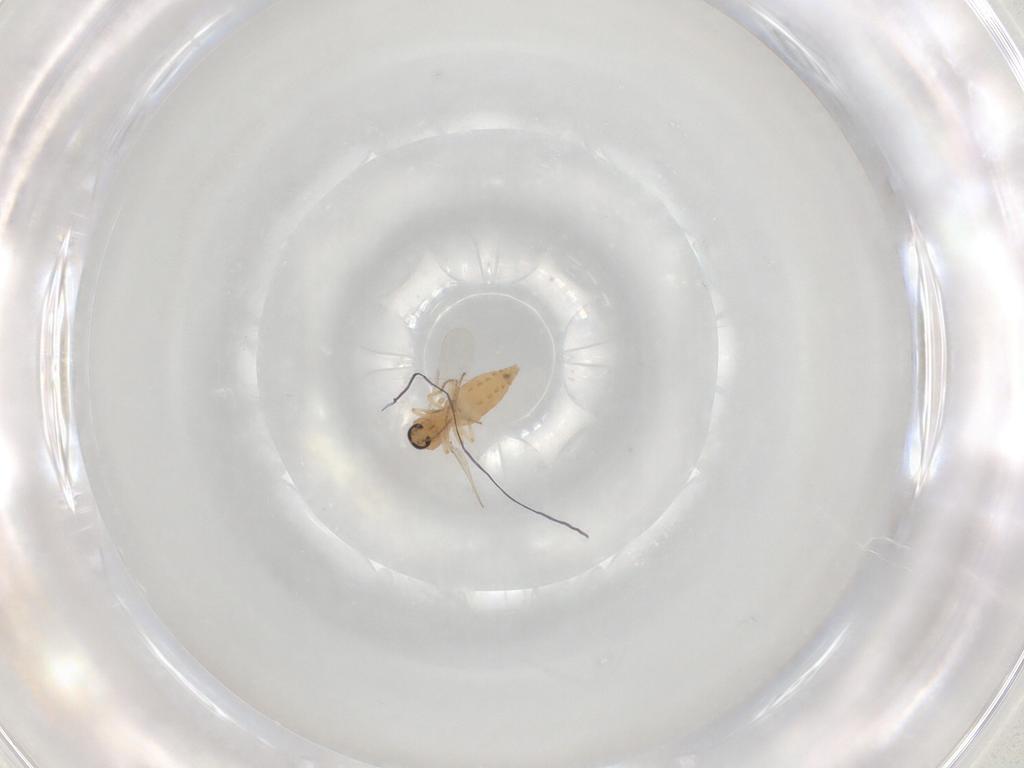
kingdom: Animalia
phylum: Arthropoda
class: Insecta
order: Diptera
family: Ceratopogonidae
